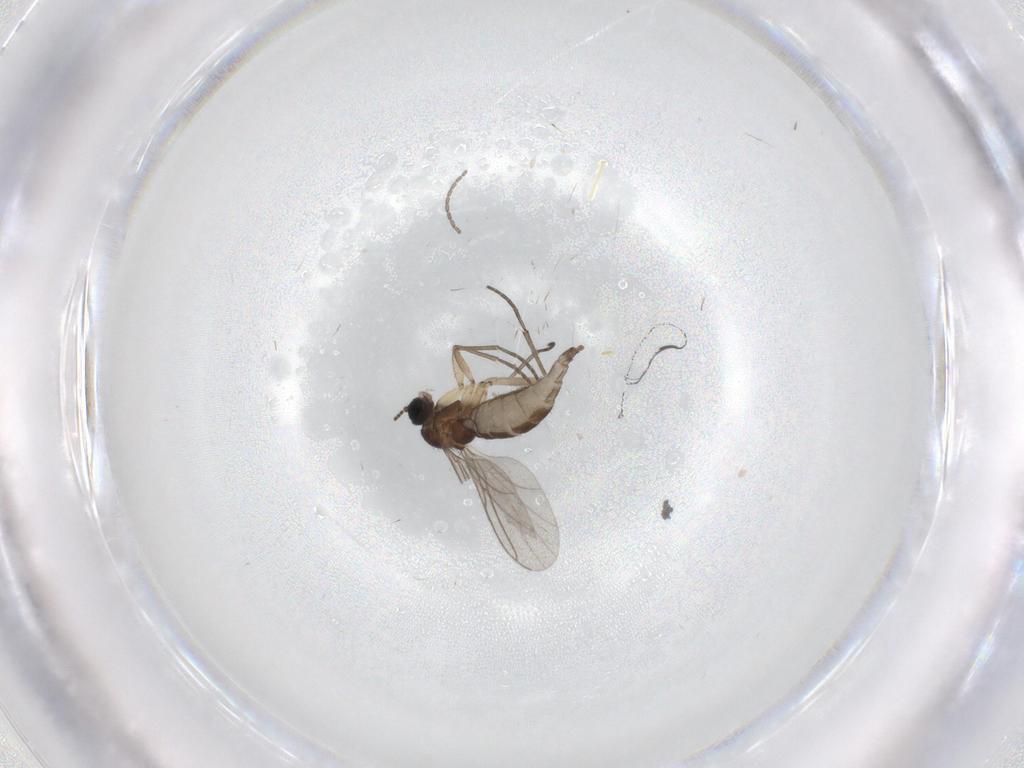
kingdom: Animalia
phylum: Arthropoda
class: Insecta
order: Diptera
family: Sciaridae
